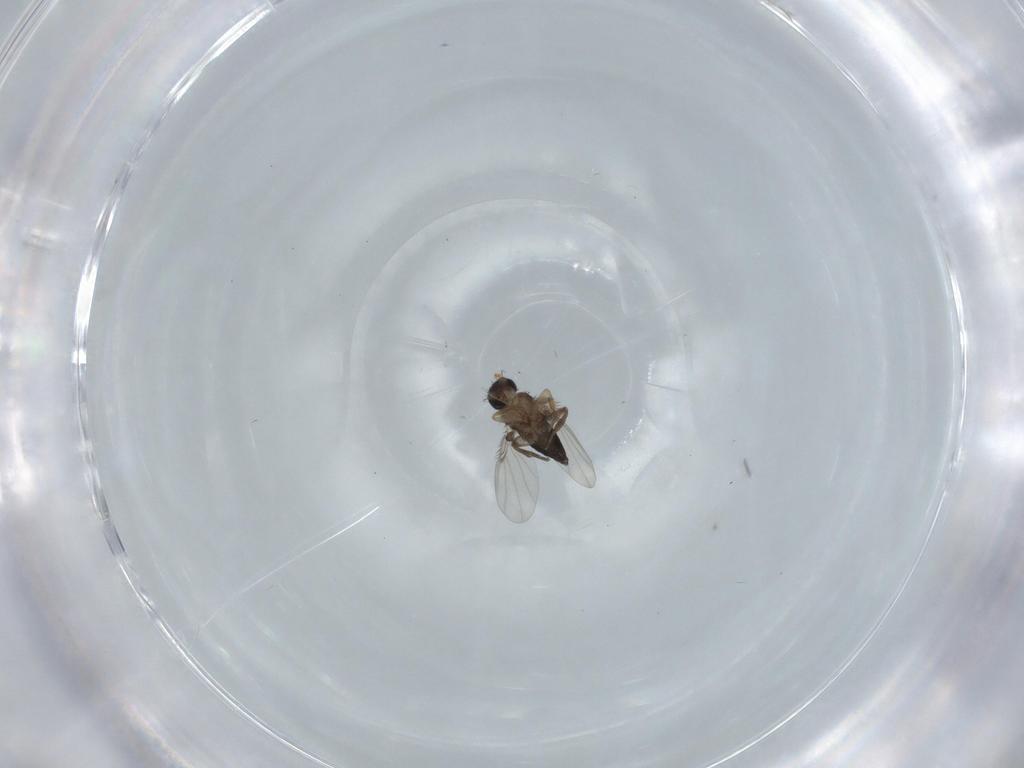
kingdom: Animalia
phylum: Arthropoda
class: Insecta
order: Diptera
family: Phoridae
